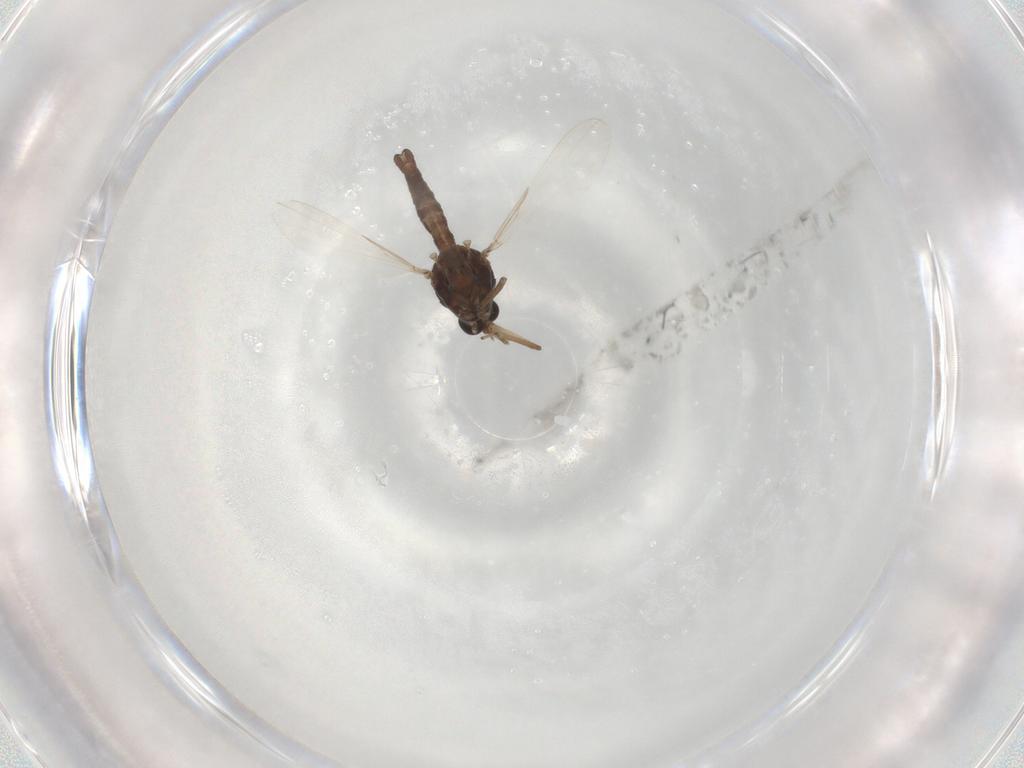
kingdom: Animalia
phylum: Arthropoda
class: Insecta
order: Diptera
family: Ceratopogonidae
